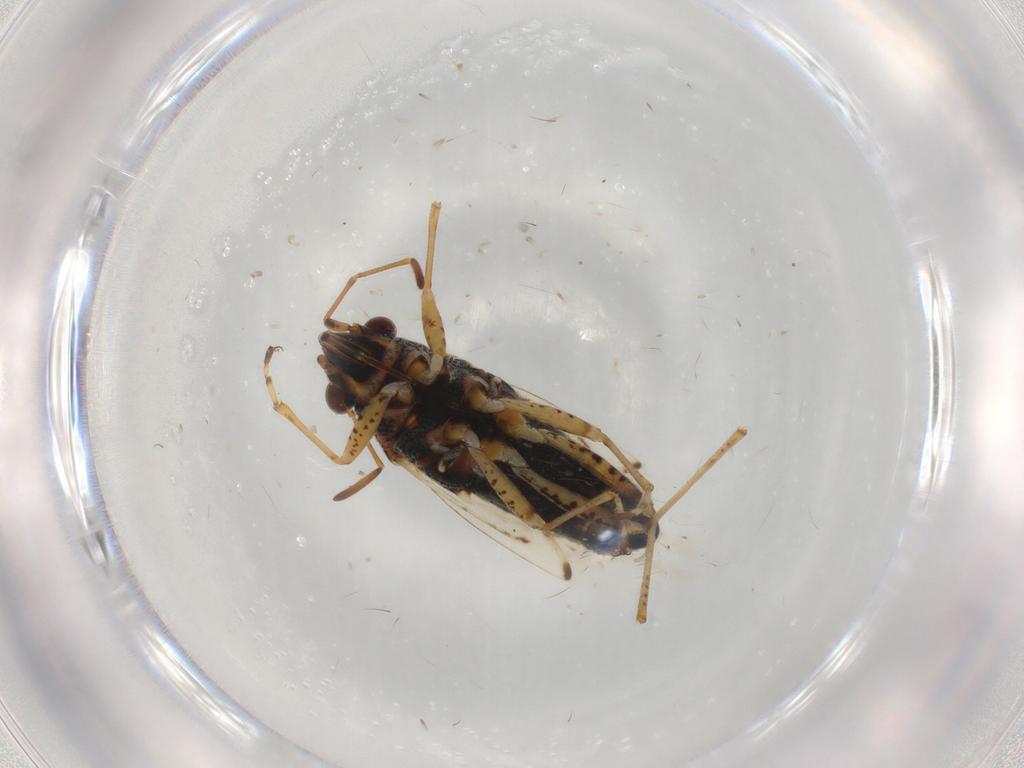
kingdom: Animalia
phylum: Arthropoda
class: Insecta
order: Hemiptera
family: Lygaeidae
